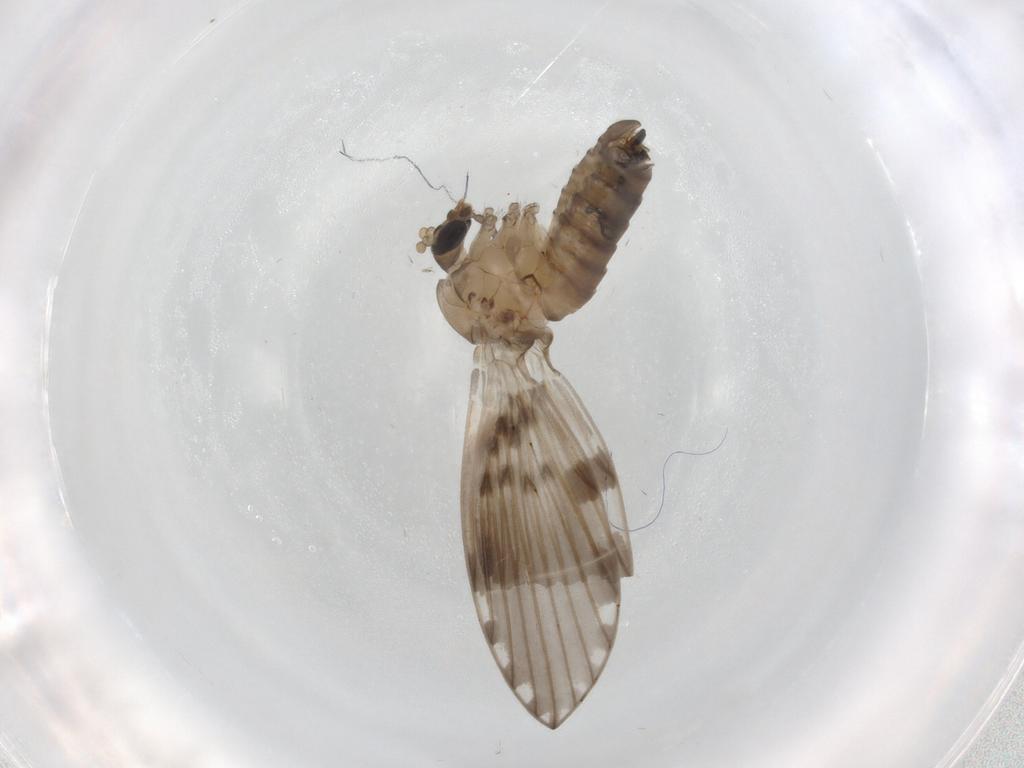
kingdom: Animalia
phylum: Arthropoda
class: Insecta
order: Diptera
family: Psychodidae
